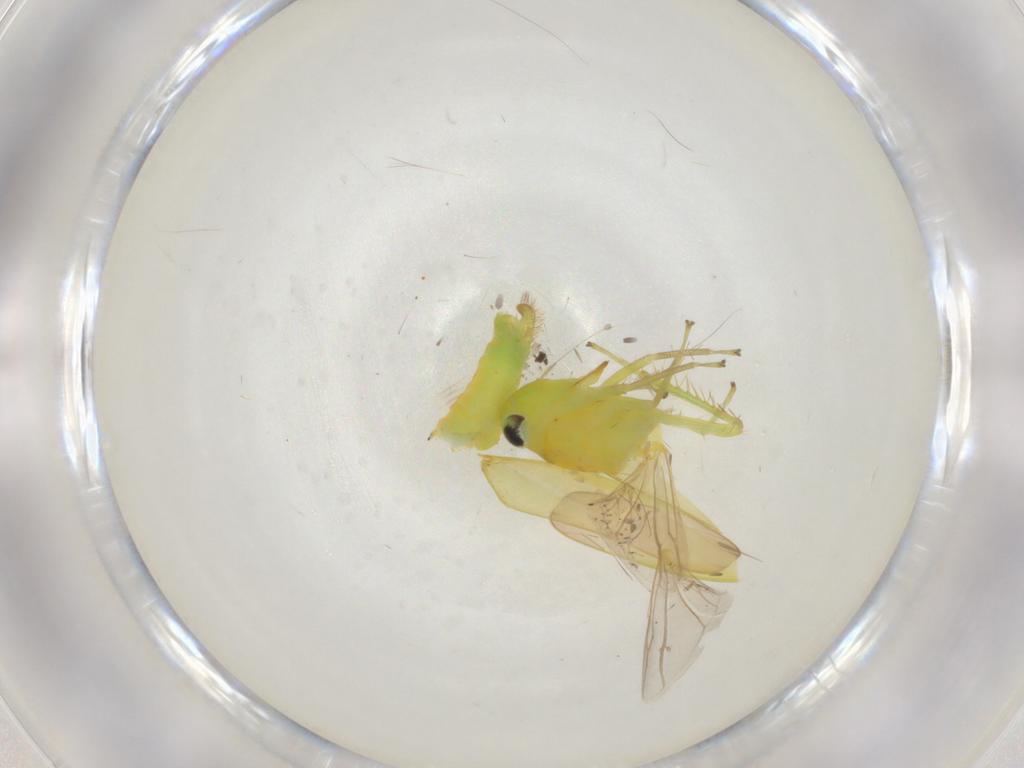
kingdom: Animalia
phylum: Arthropoda
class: Insecta
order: Hemiptera
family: Cicadellidae
